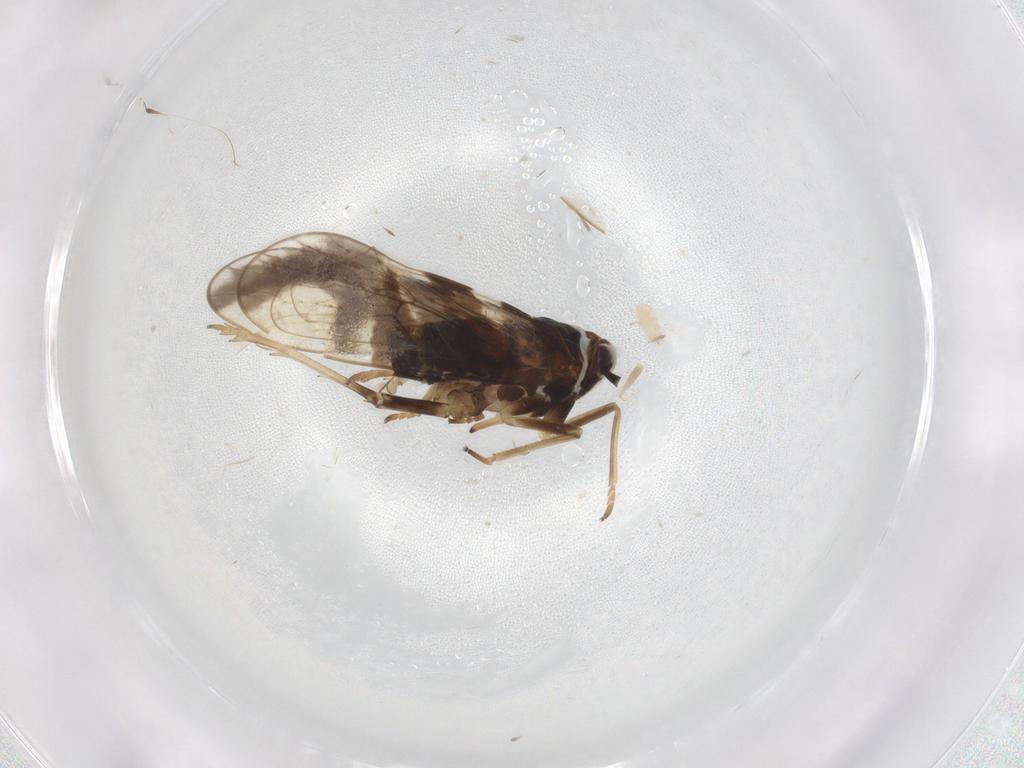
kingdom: Animalia
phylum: Arthropoda
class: Insecta
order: Hemiptera
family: Delphacidae
